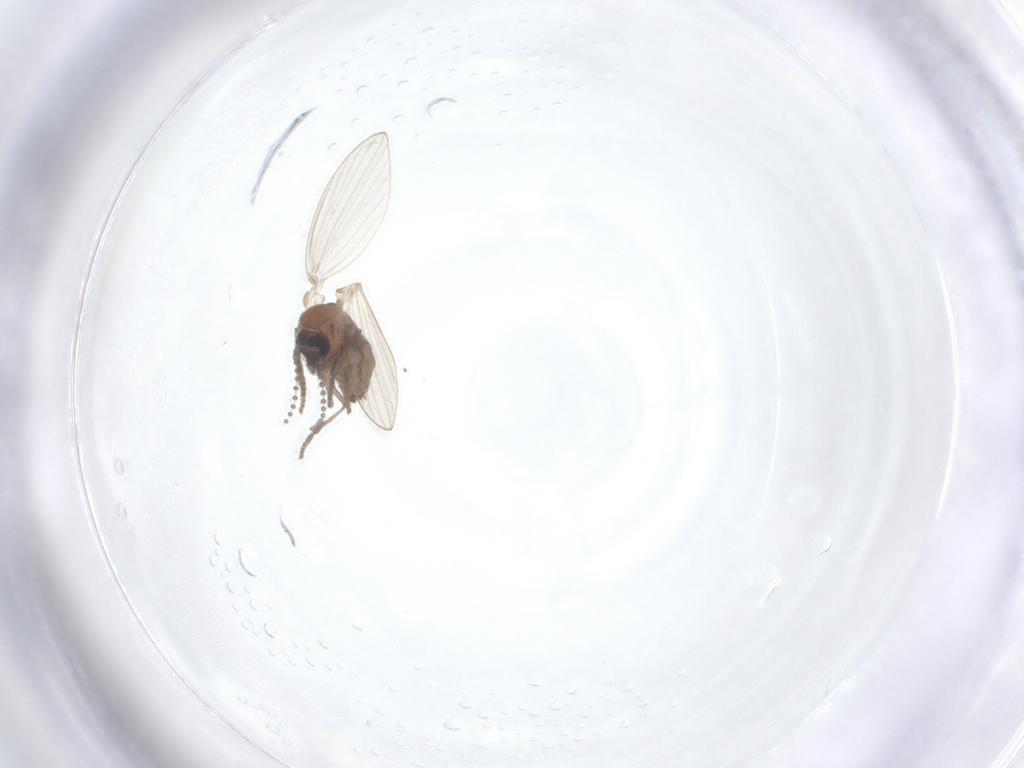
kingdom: Animalia
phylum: Arthropoda
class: Insecta
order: Diptera
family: Psychodidae
